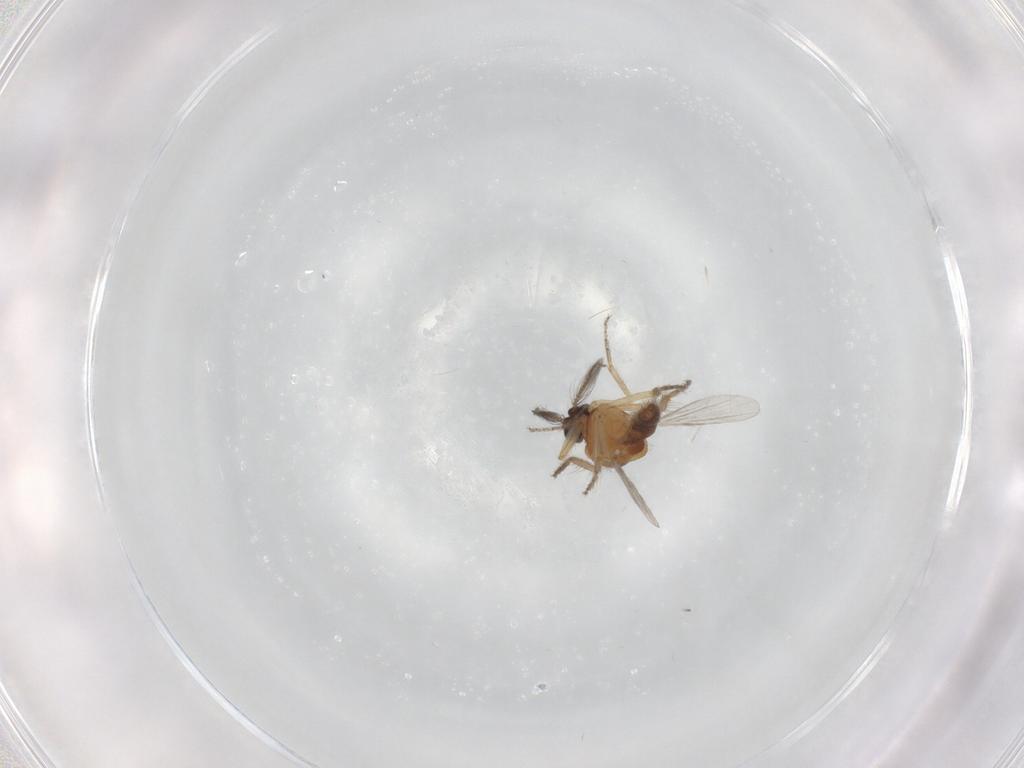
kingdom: Animalia
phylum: Arthropoda
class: Insecta
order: Diptera
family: Ceratopogonidae
